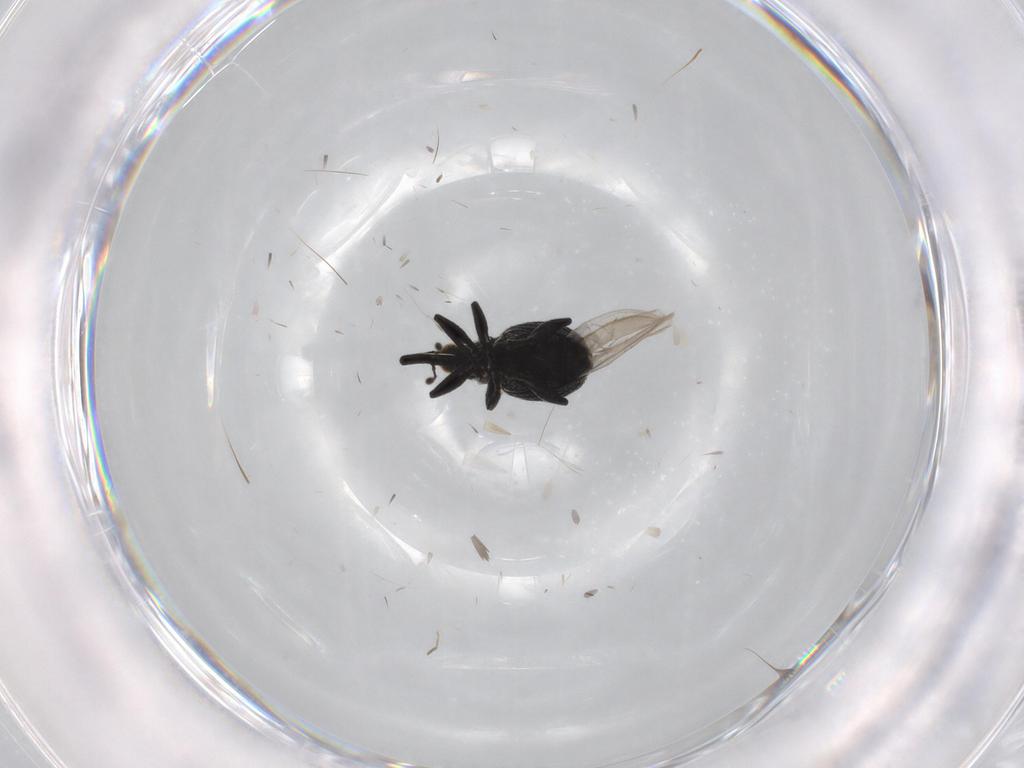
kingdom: Animalia
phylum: Arthropoda
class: Insecta
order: Coleoptera
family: Brentidae
